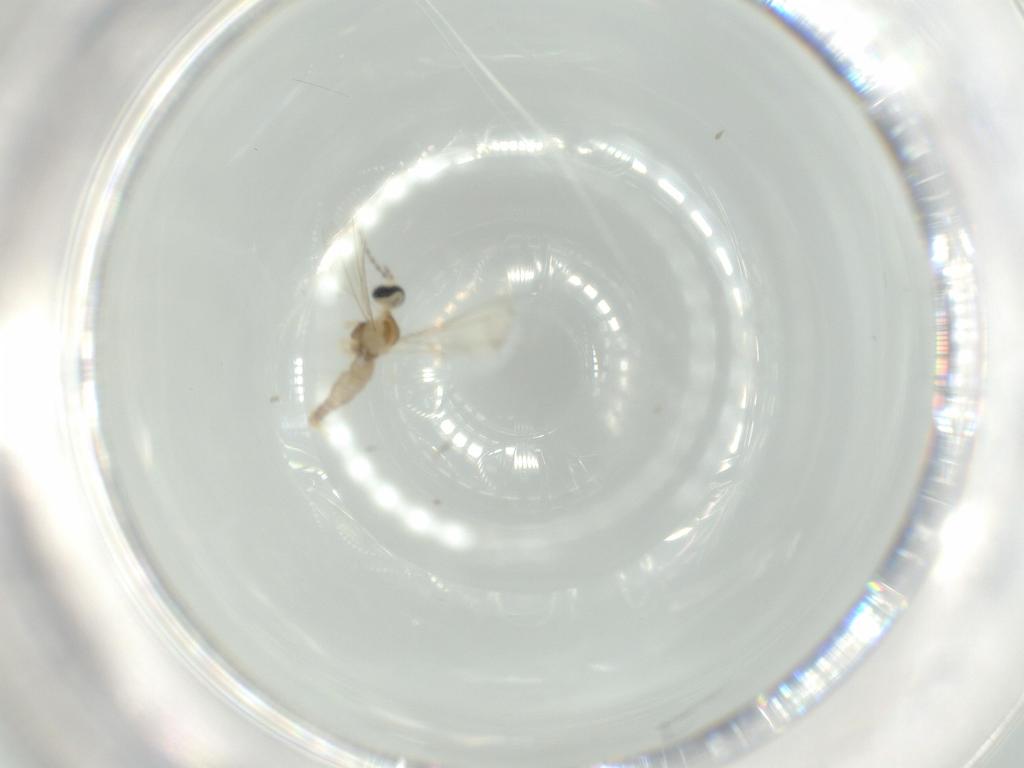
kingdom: Animalia
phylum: Arthropoda
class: Insecta
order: Diptera
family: Cecidomyiidae
